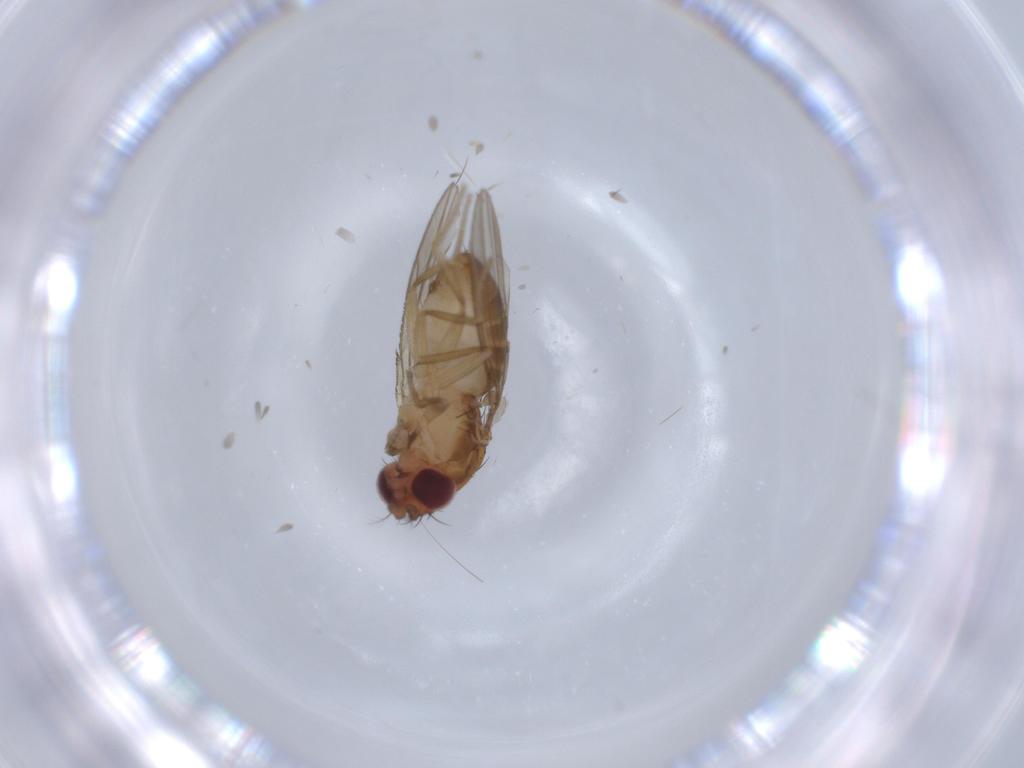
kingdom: Animalia
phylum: Arthropoda
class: Insecta
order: Diptera
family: Drosophilidae
